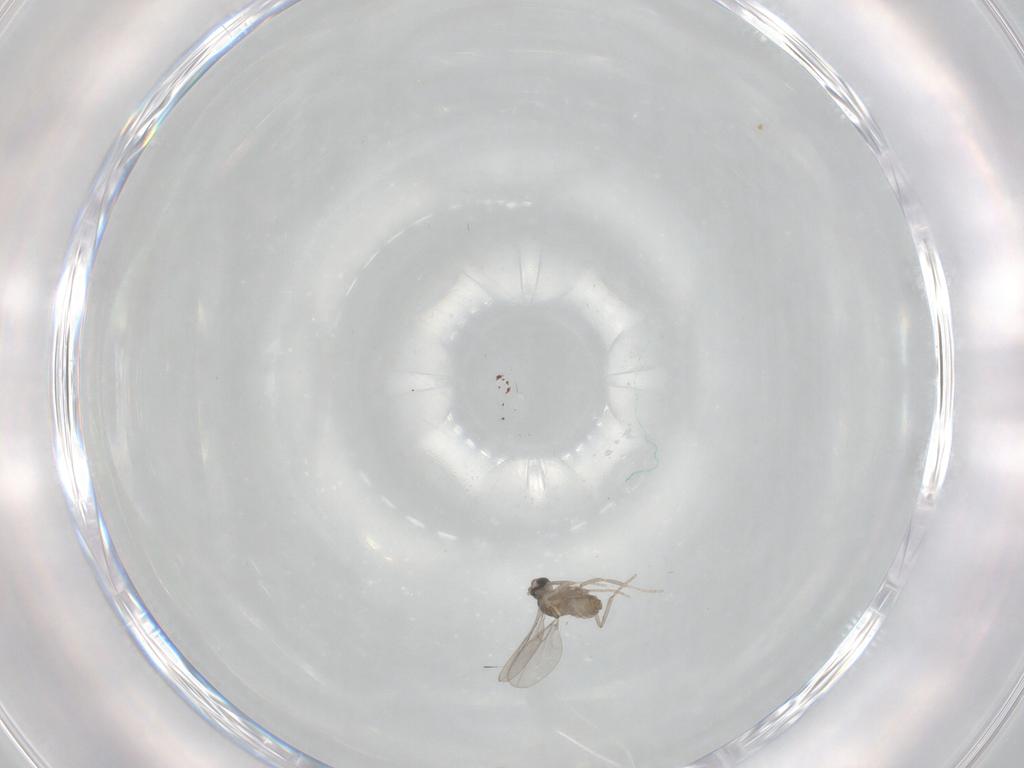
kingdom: Animalia
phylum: Arthropoda
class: Insecta
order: Diptera
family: Cecidomyiidae
